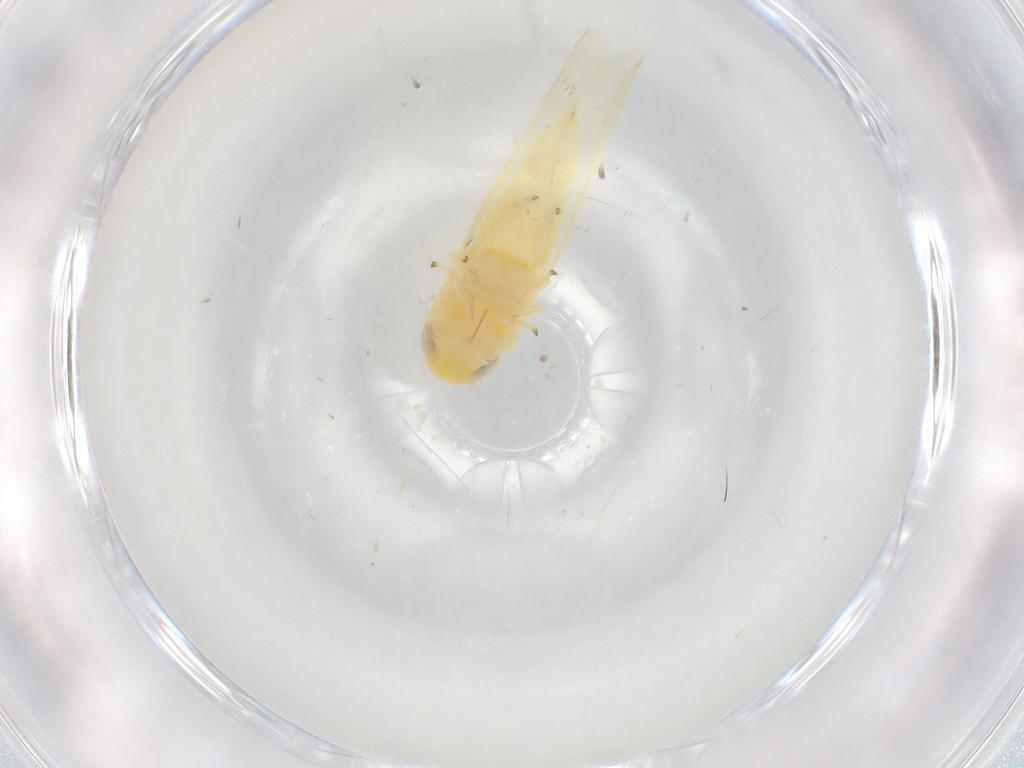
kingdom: Animalia
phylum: Arthropoda
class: Insecta
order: Hemiptera
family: Cicadellidae
